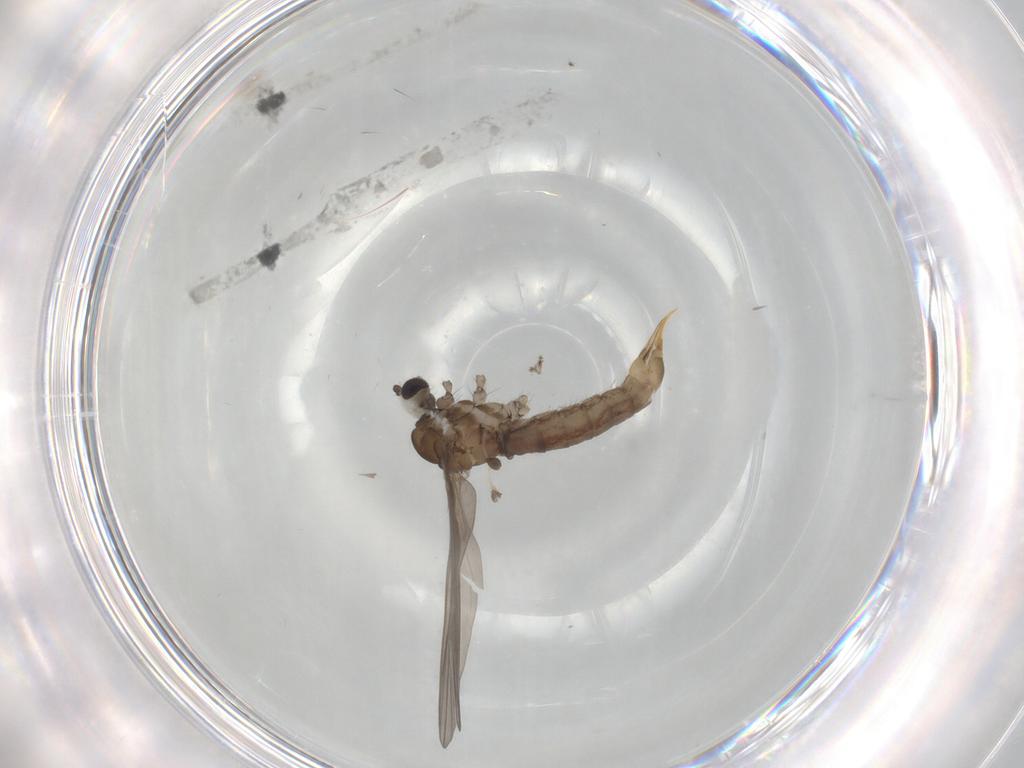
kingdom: Animalia
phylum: Arthropoda
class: Insecta
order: Diptera
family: Limoniidae
